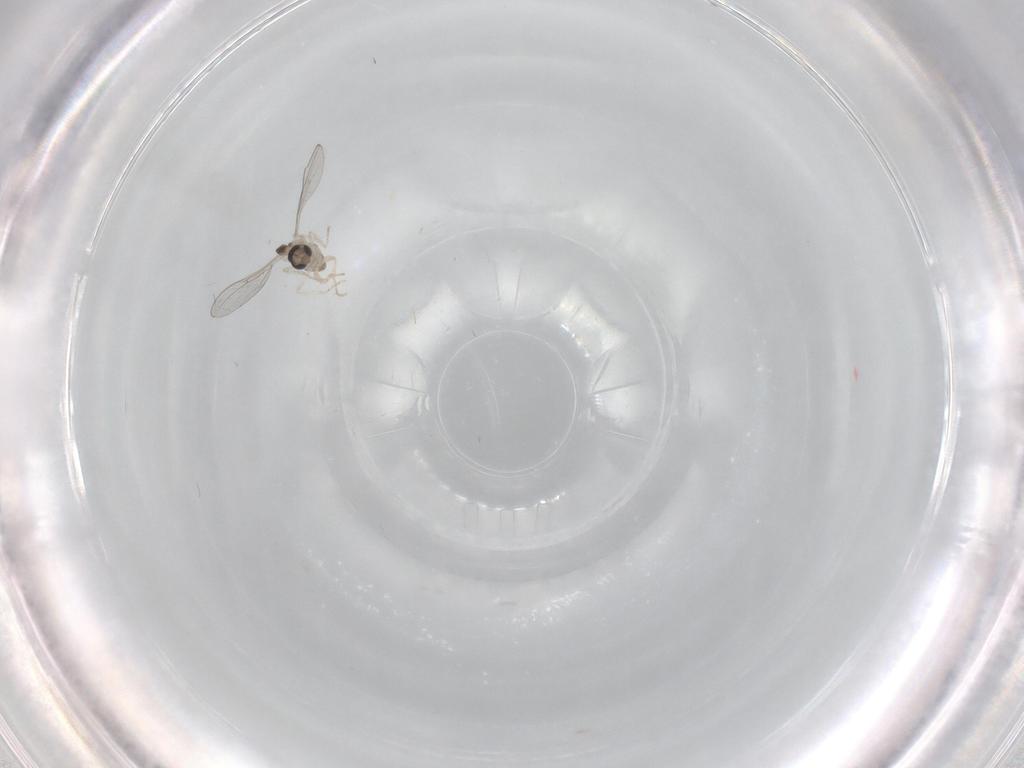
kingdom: Animalia
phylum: Arthropoda
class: Insecta
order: Diptera
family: Cecidomyiidae
